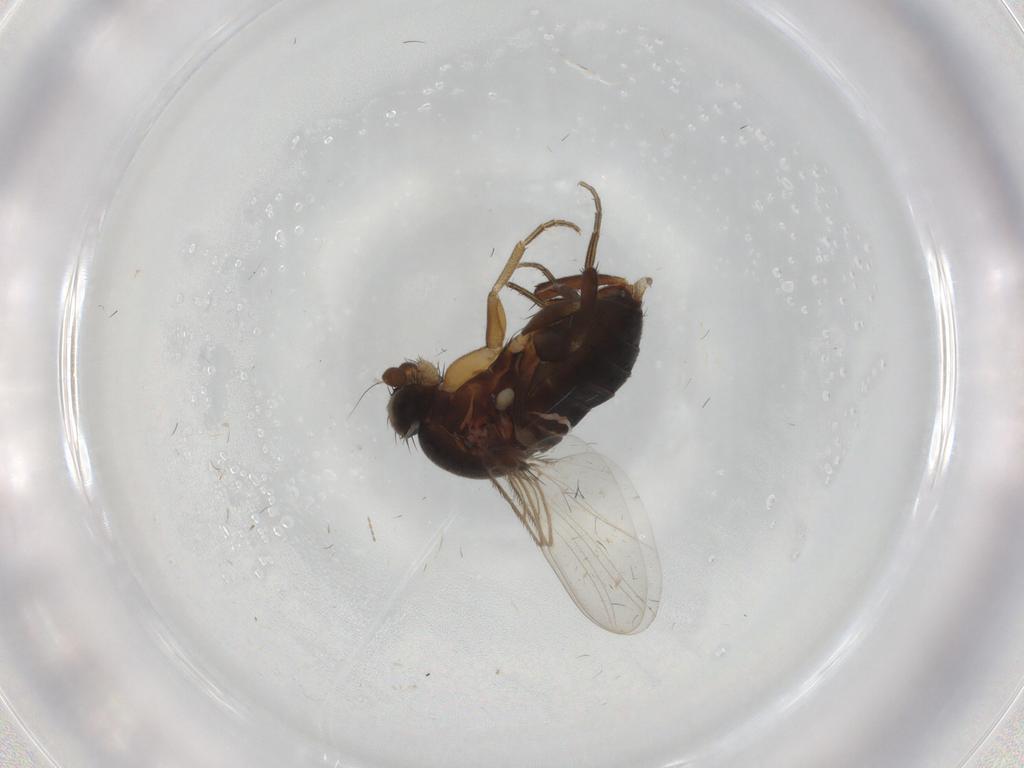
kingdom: Animalia
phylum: Arthropoda
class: Insecta
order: Diptera
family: Phoridae
